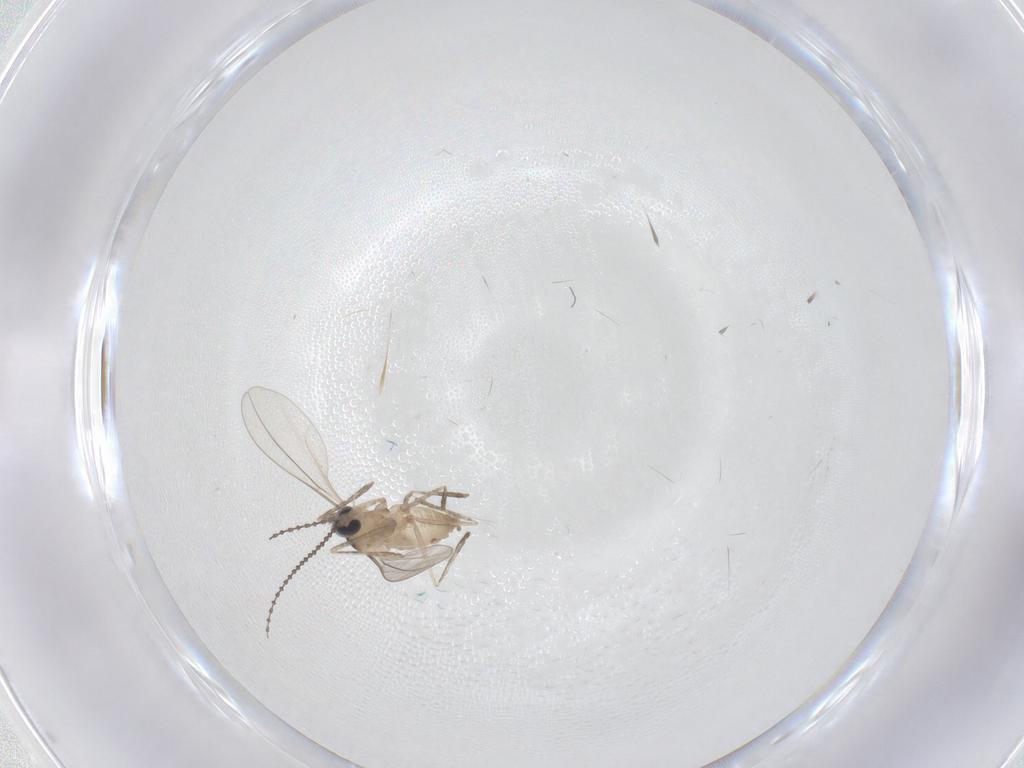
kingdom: Animalia
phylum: Arthropoda
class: Insecta
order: Diptera
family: Cecidomyiidae
